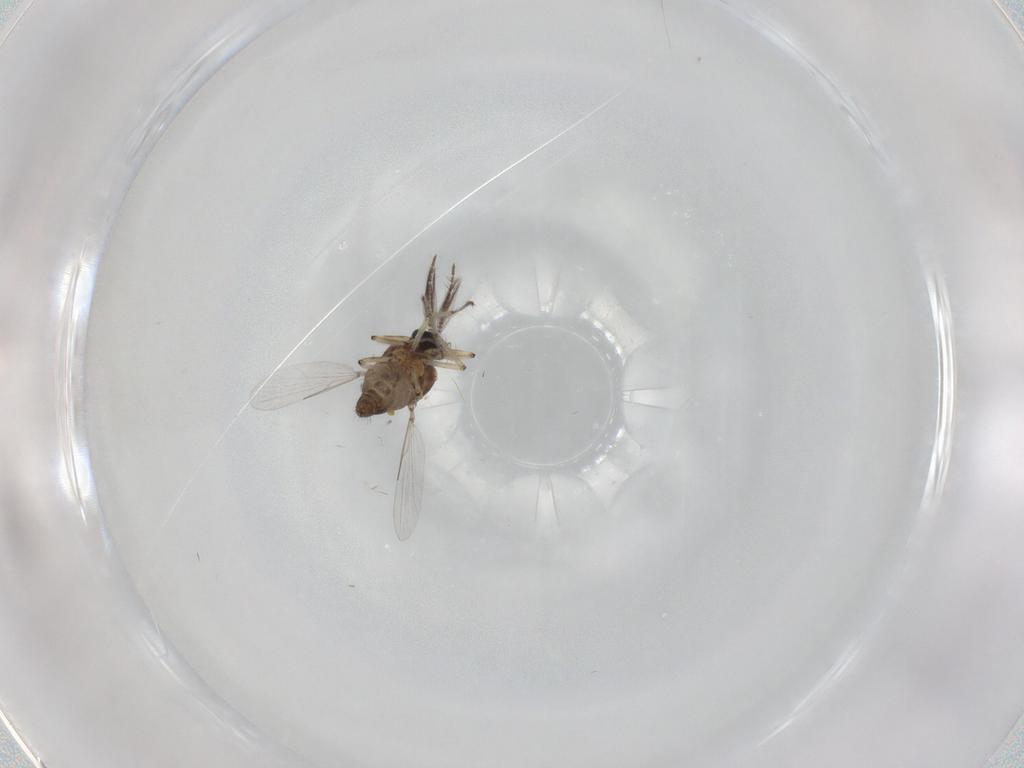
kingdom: Animalia
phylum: Arthropoda
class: Insecta
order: Diptera
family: Ceratopogonidae
